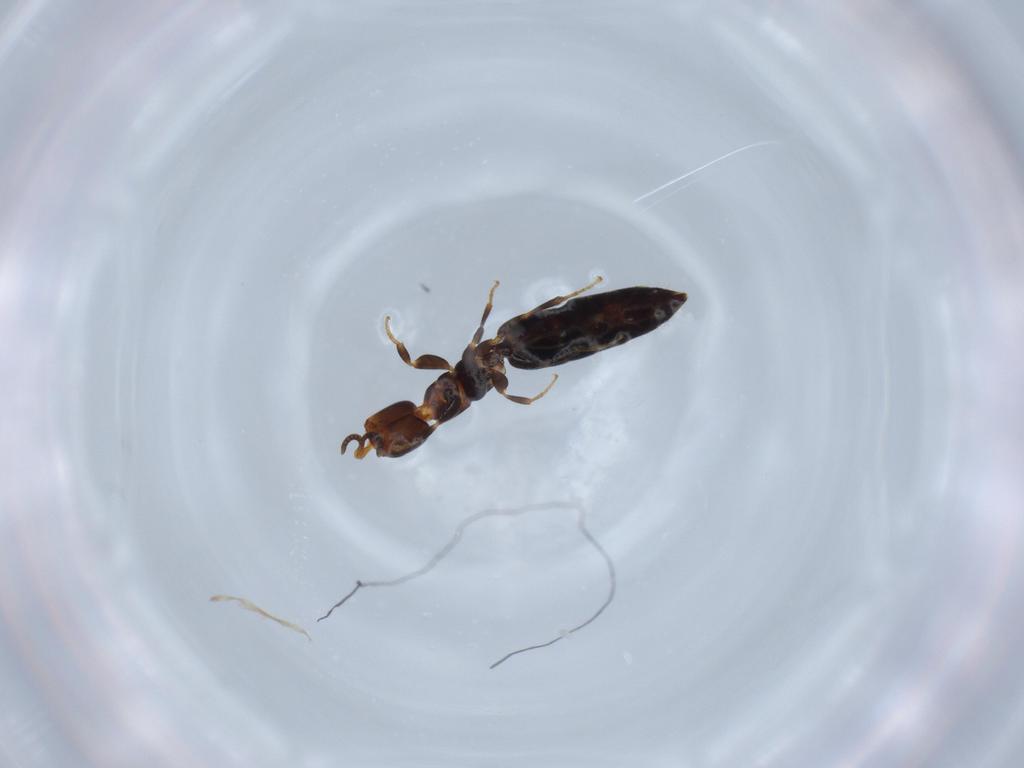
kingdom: Animalia
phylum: Arthropoda
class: Insecta
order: Hymenoptera
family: Bethylidae
